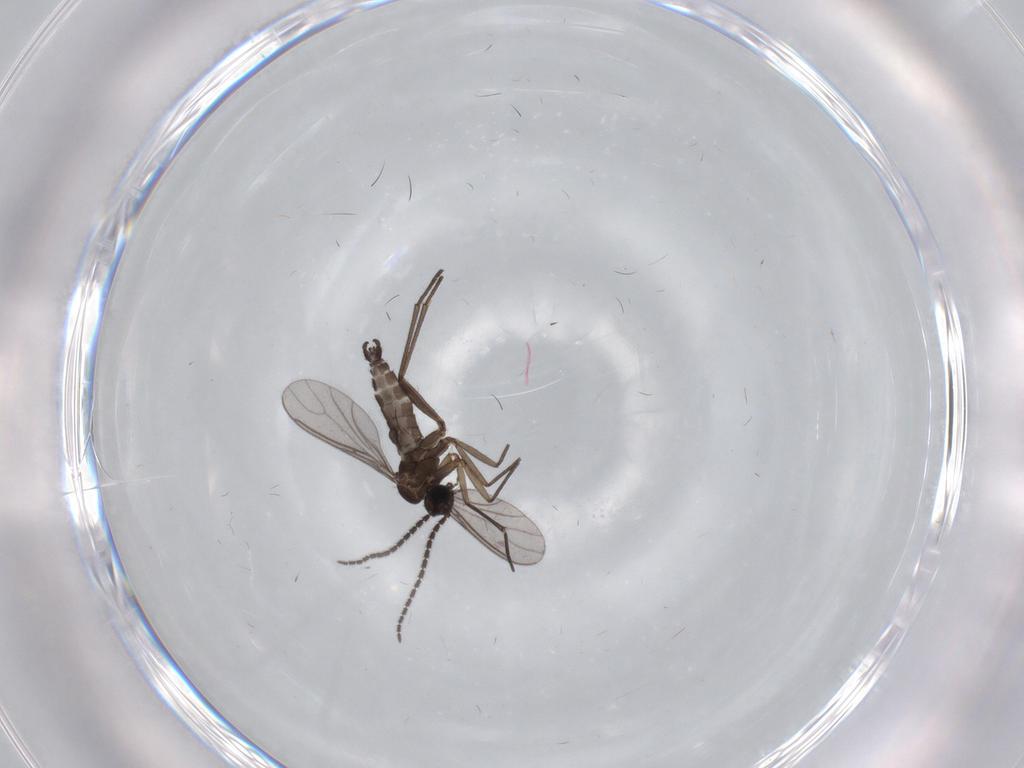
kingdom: Animalia
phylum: Arthropoda
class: Insecta
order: Diptera
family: Sciaridae
